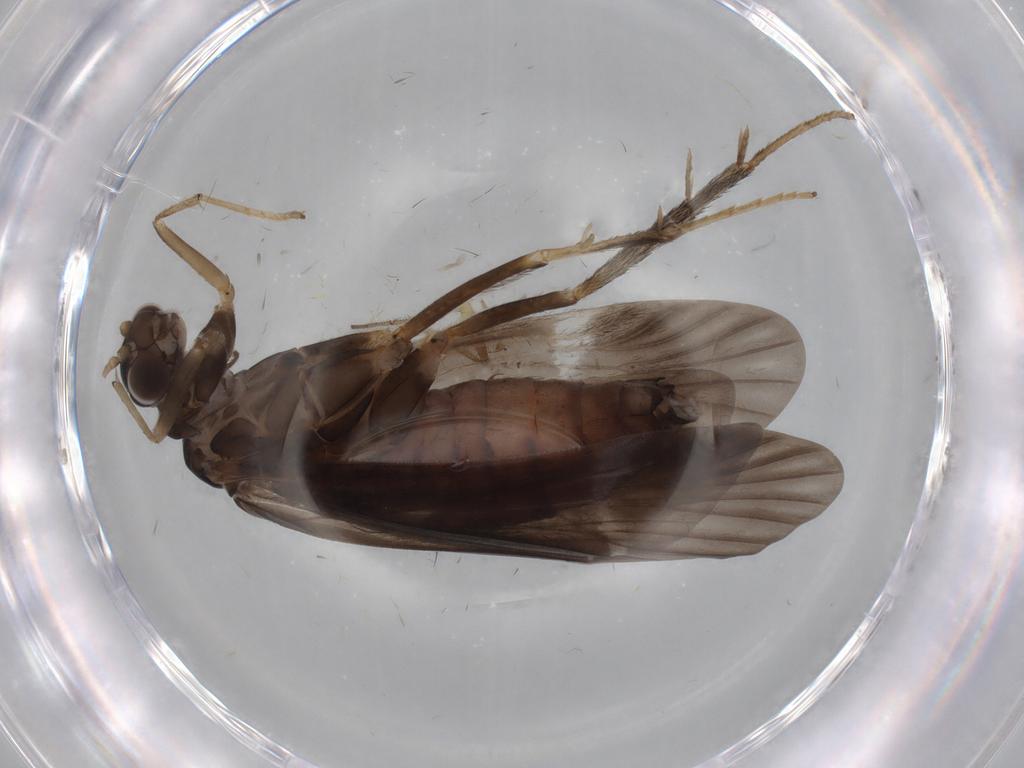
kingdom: Animalia
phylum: Arthropoda
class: Insecta
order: Diptera
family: Dolichopodidae
